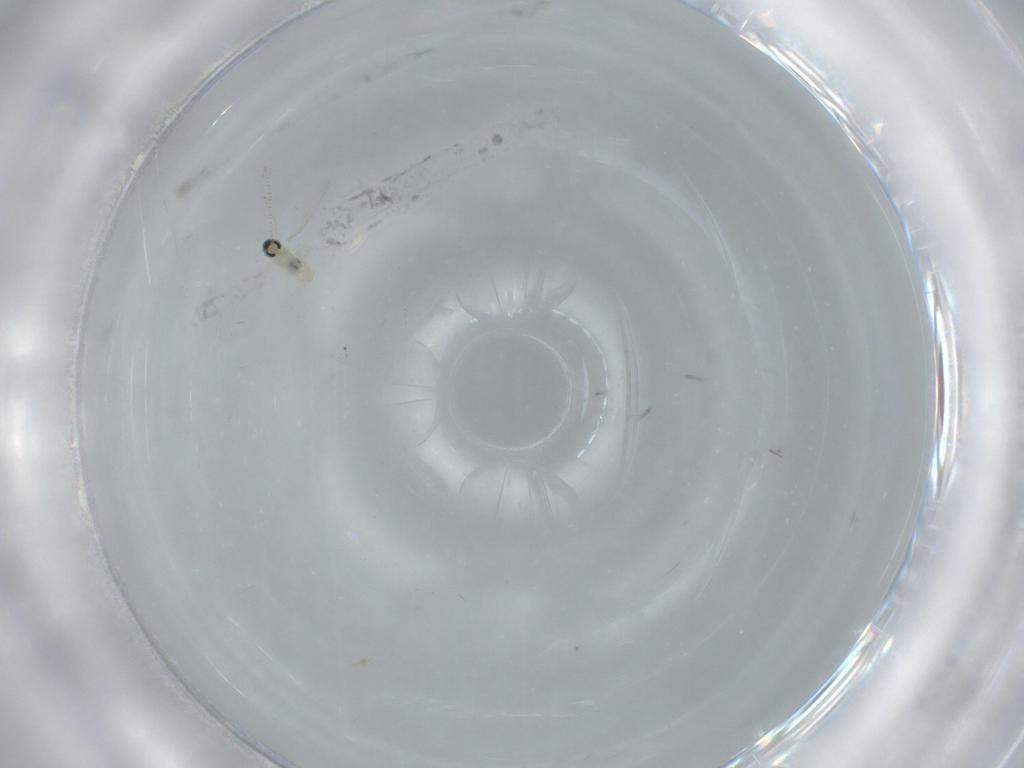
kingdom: Animalia
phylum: Arthropoda
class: Insecta
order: Diptera
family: Cecidomyiidae
